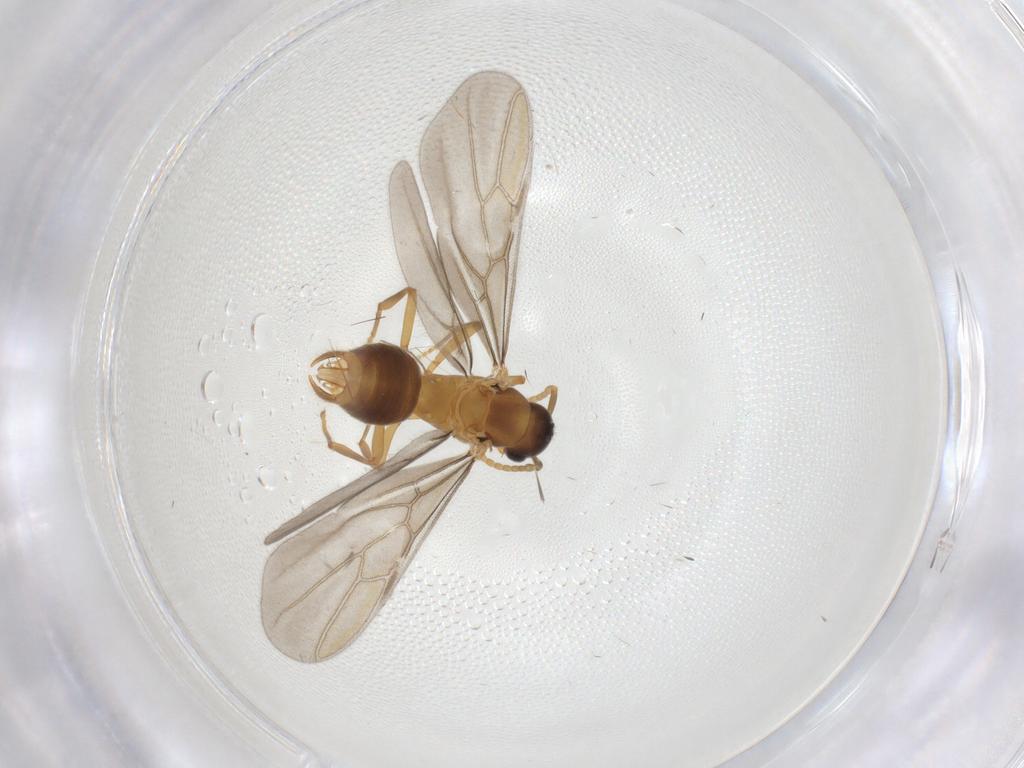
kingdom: Animalia
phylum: Arthropoda
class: Insecta
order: Hymenoptera
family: Formicidae
